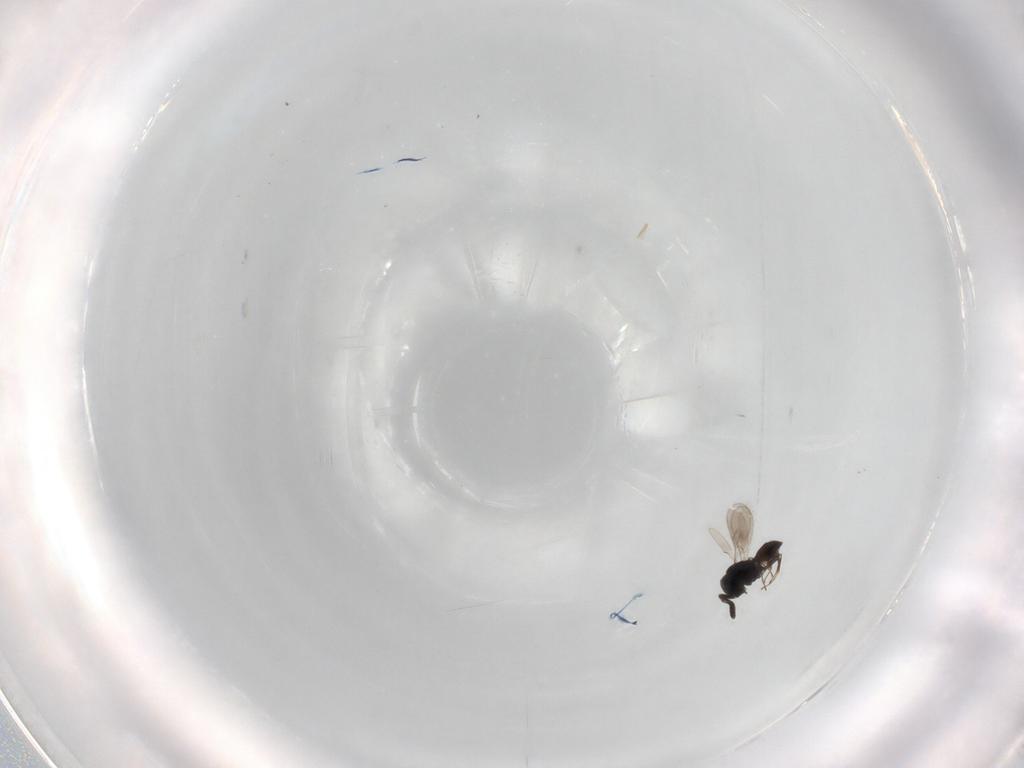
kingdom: Animalia
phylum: Arthropoda
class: Insecta
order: Hymenoptera
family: Scelionidae
